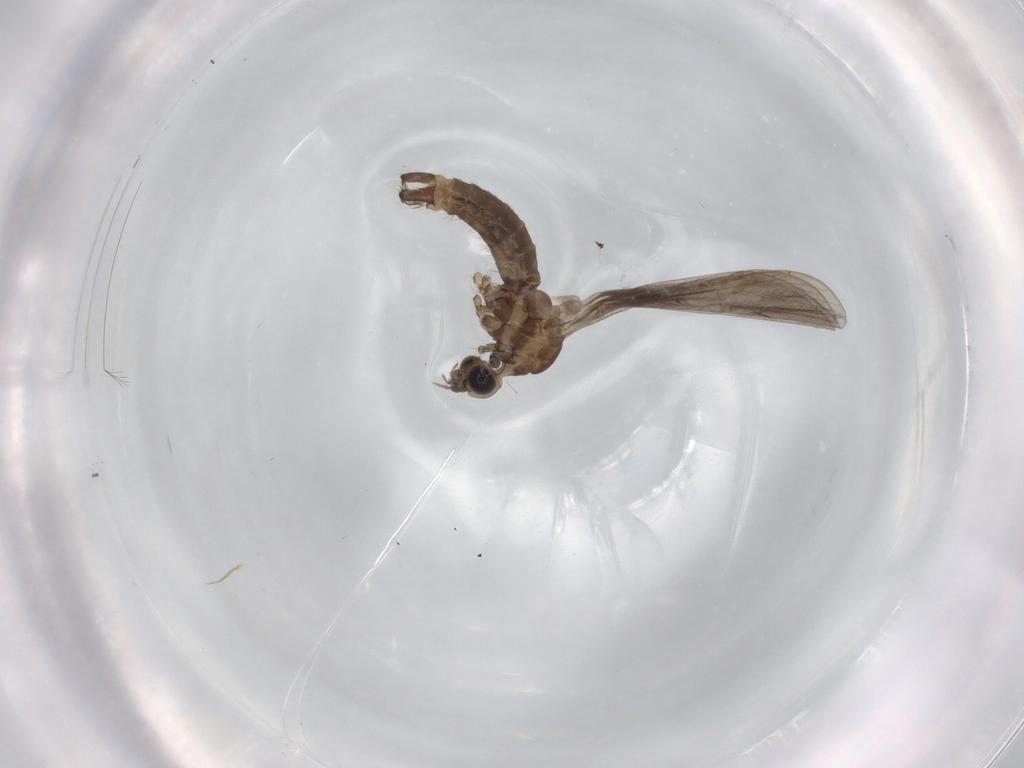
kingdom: Animalia
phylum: Arthropoda
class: Insecta
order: Diptera
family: Limoniidae
